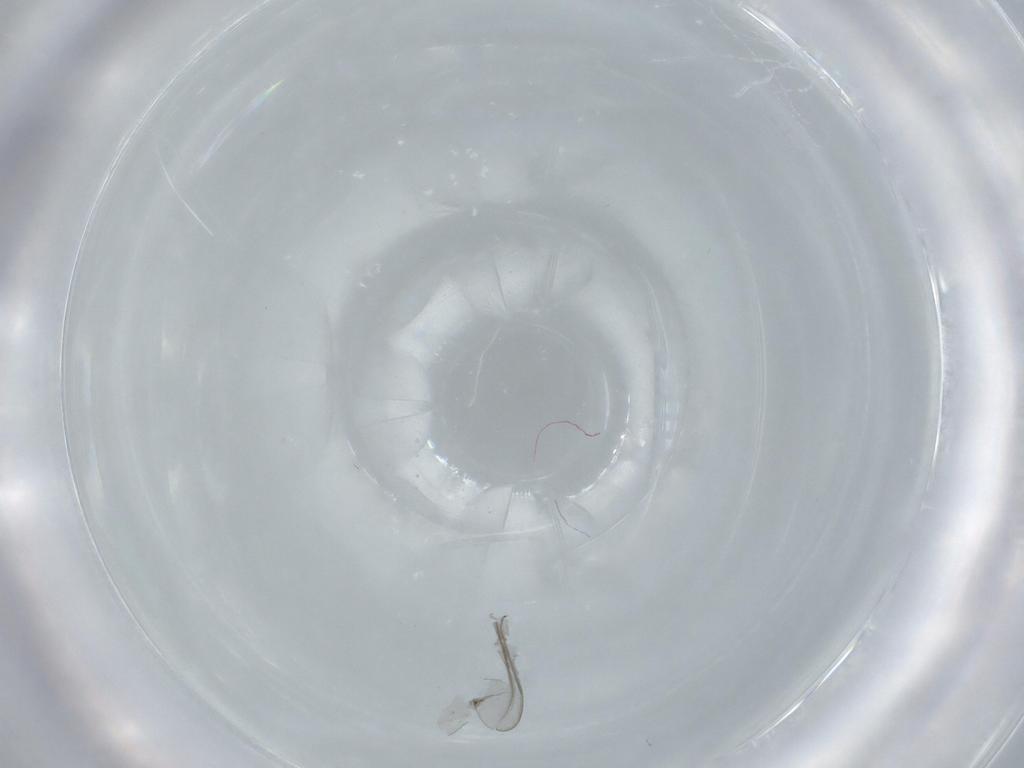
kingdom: Animalia
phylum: Arthropoda
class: Insecta
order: Diptera
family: Cecidomyiidae
